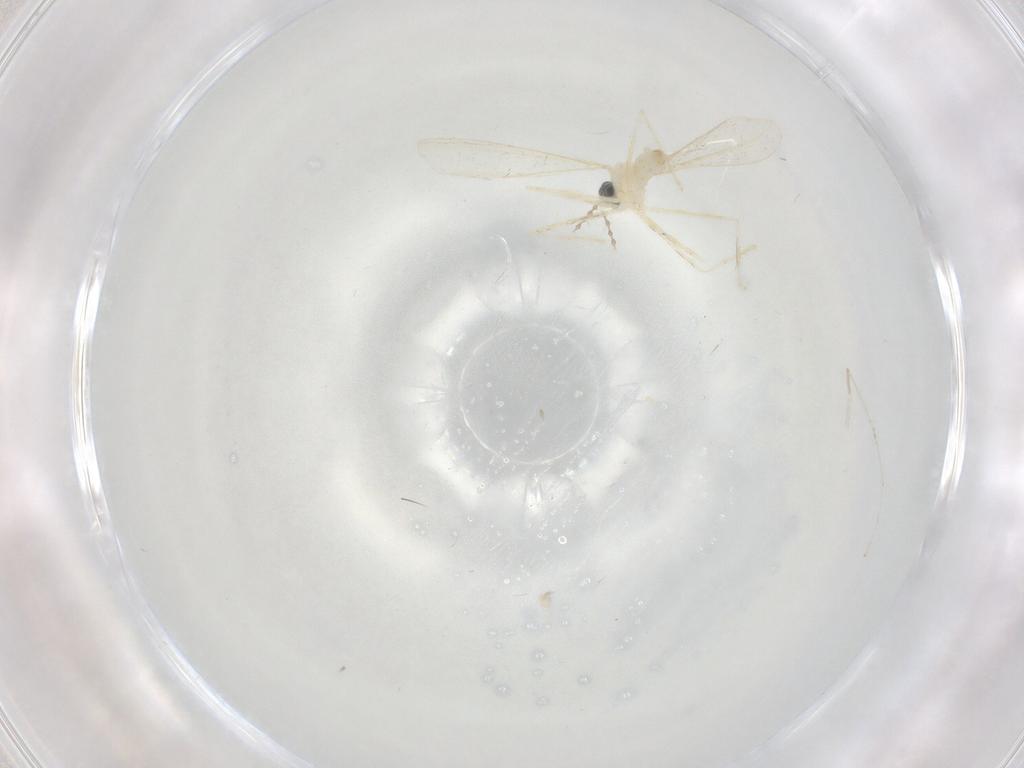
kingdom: Animalia
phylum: Arthropoda
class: Insecta
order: Diptera
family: Cecidomyiidae
